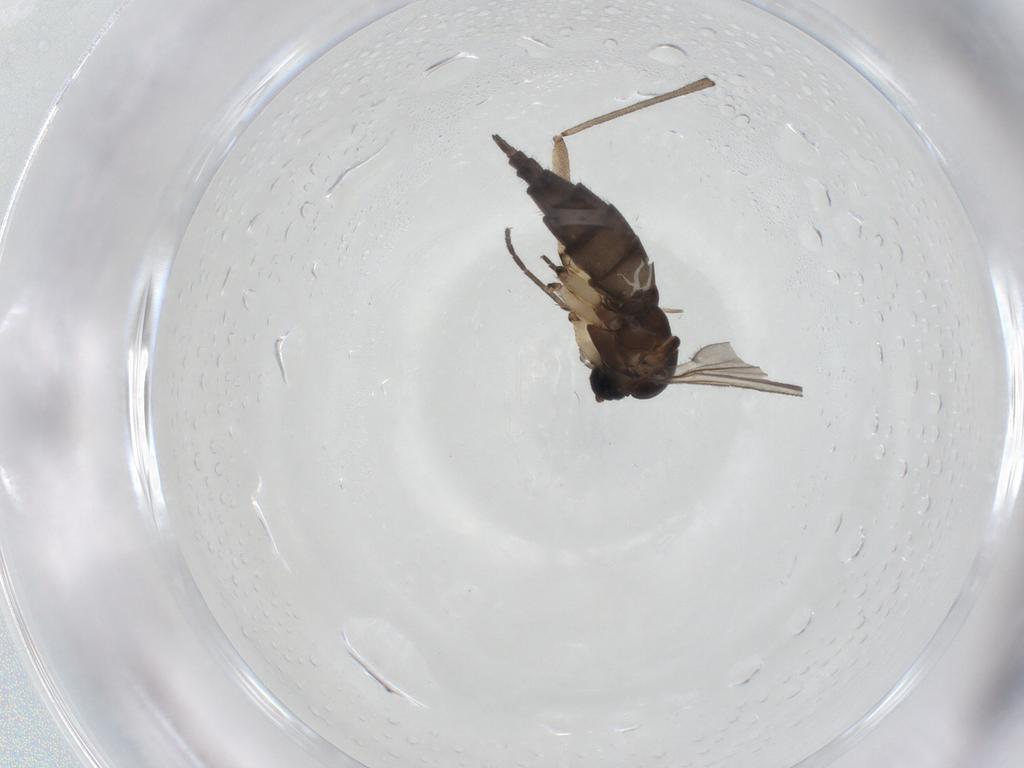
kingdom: Animalia
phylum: Arthropoda
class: Insecta
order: Diptera
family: Sciaridae
